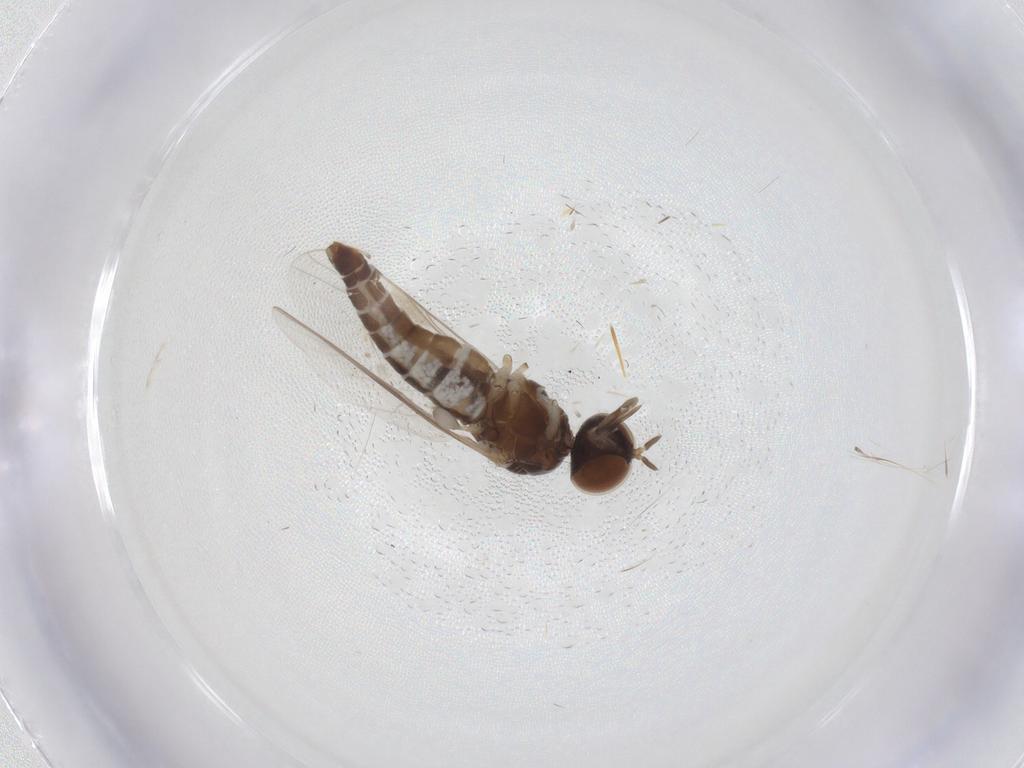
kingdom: Animalia
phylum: Arthropoda
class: Insecta
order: Diptera
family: Scenopinidae
